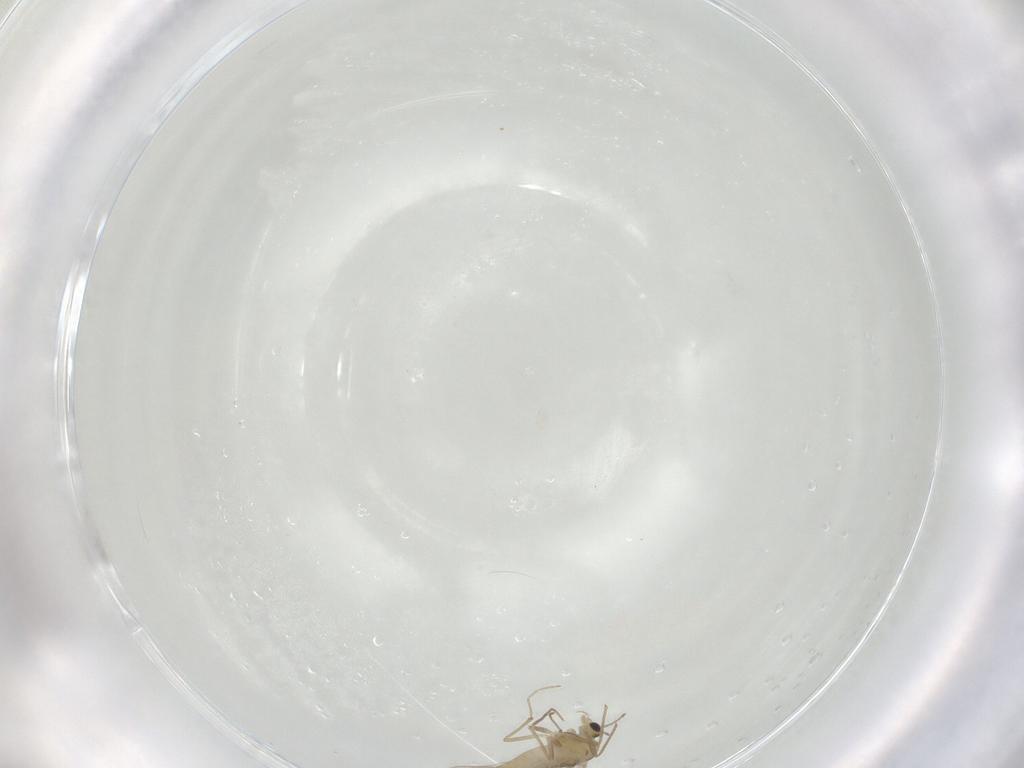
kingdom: Animalia
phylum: Arthropoda
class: Insecta
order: Diptera
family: Chironomidae
